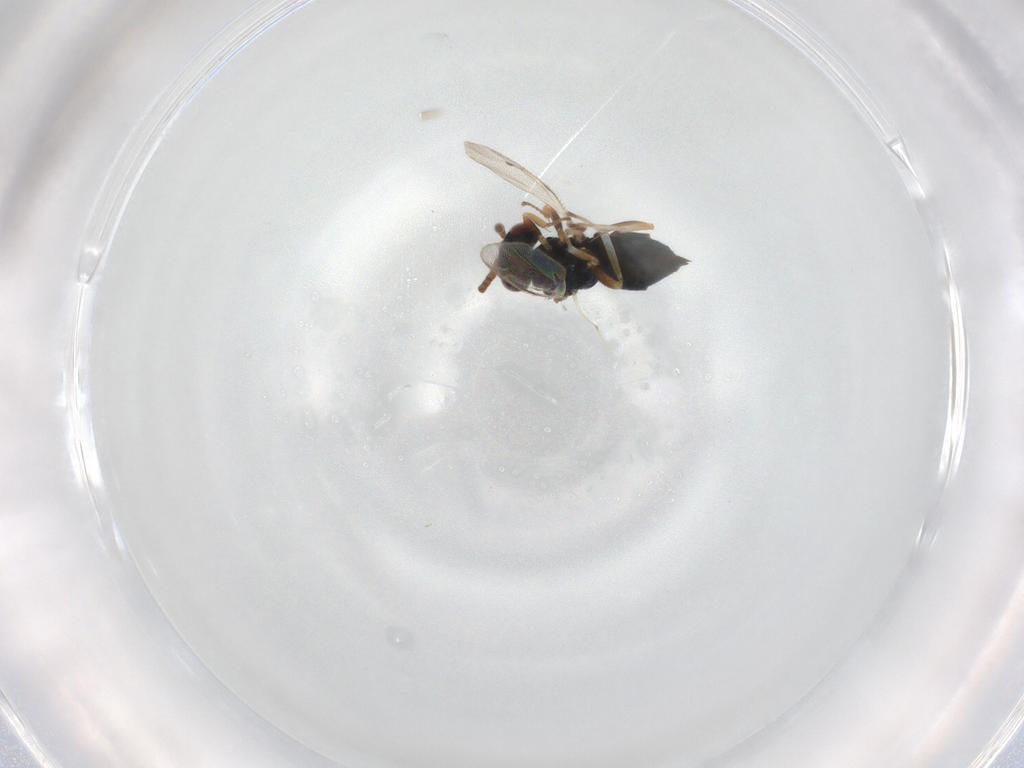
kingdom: Animalia
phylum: Arthropoda
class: Insecta
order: Hymenoptera
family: Pteromalidae
